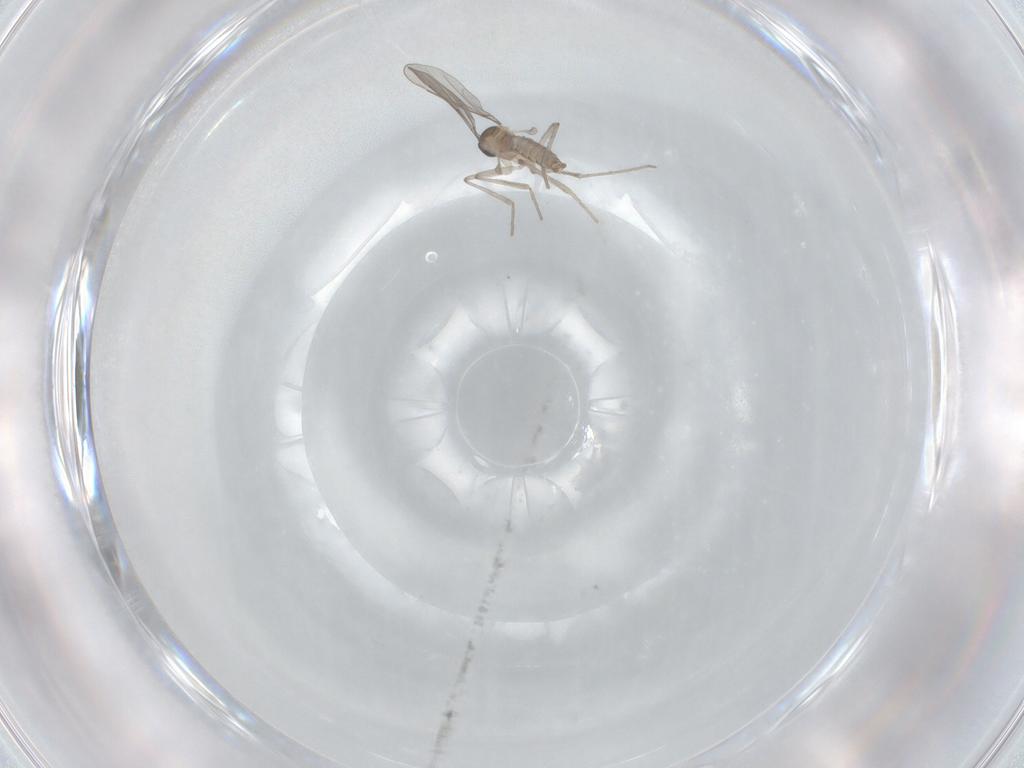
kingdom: Animalia
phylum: Arthropoda
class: Insecta
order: Diptera
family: Cecidomyiidae
